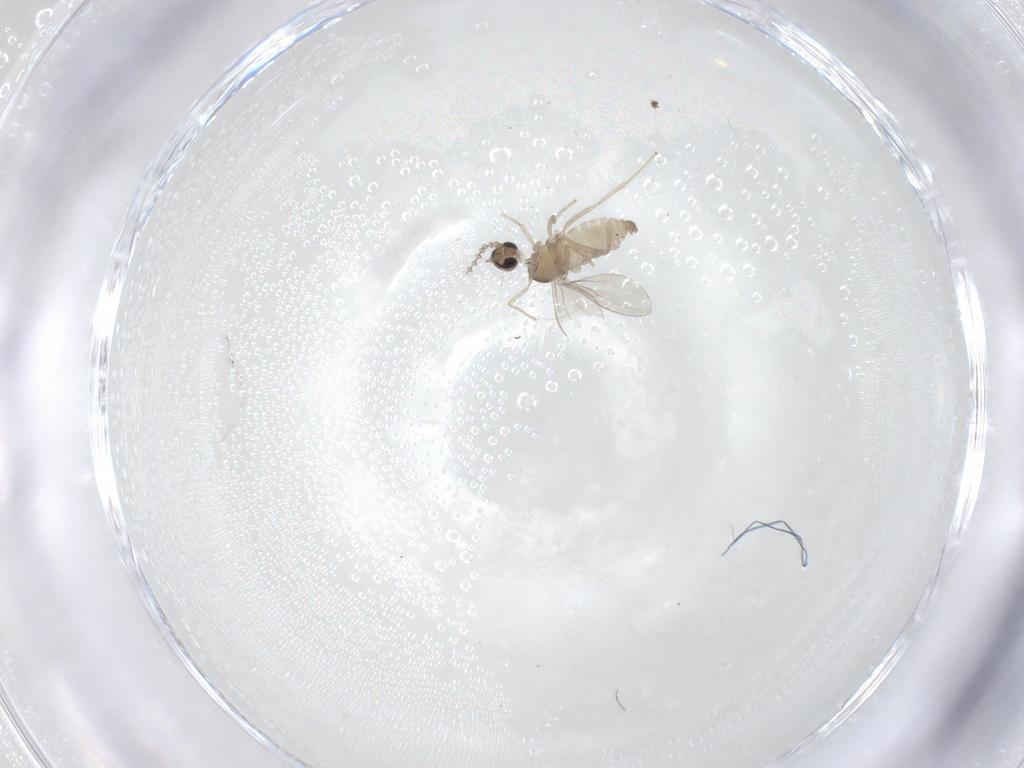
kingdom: Animalia
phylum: Arthropoda
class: Insecta
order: Diptera
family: Cecidomyiidae
